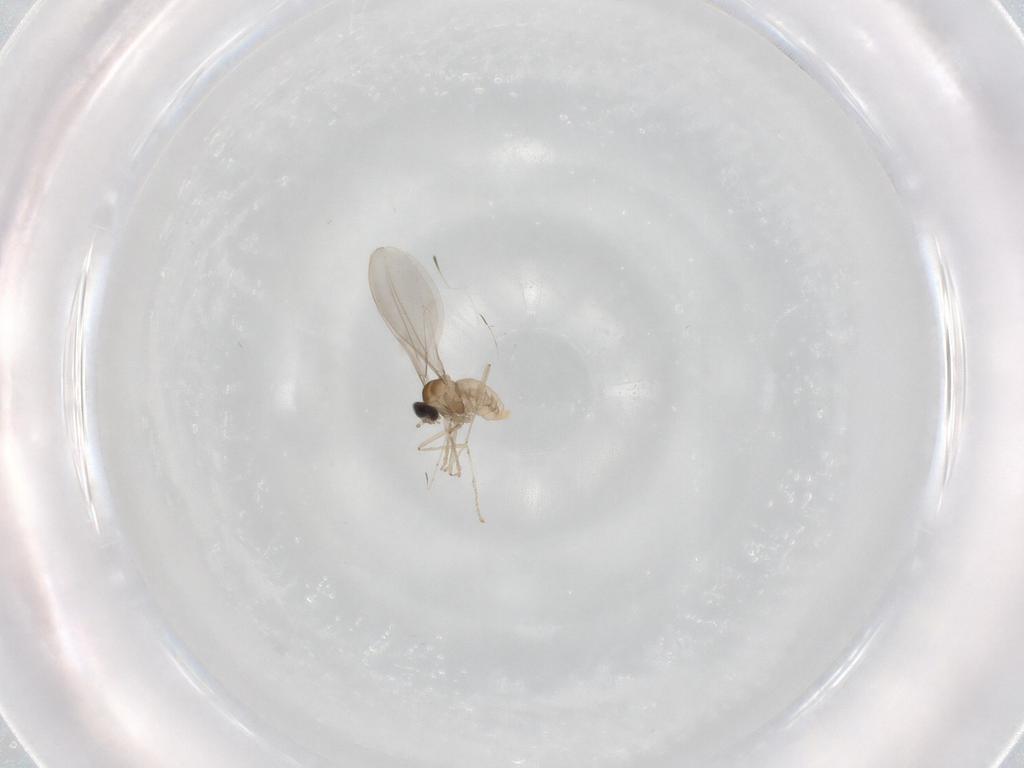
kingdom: Animalia
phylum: Arthropoda
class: Insecta
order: Diptera
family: Cecidomyiidae
